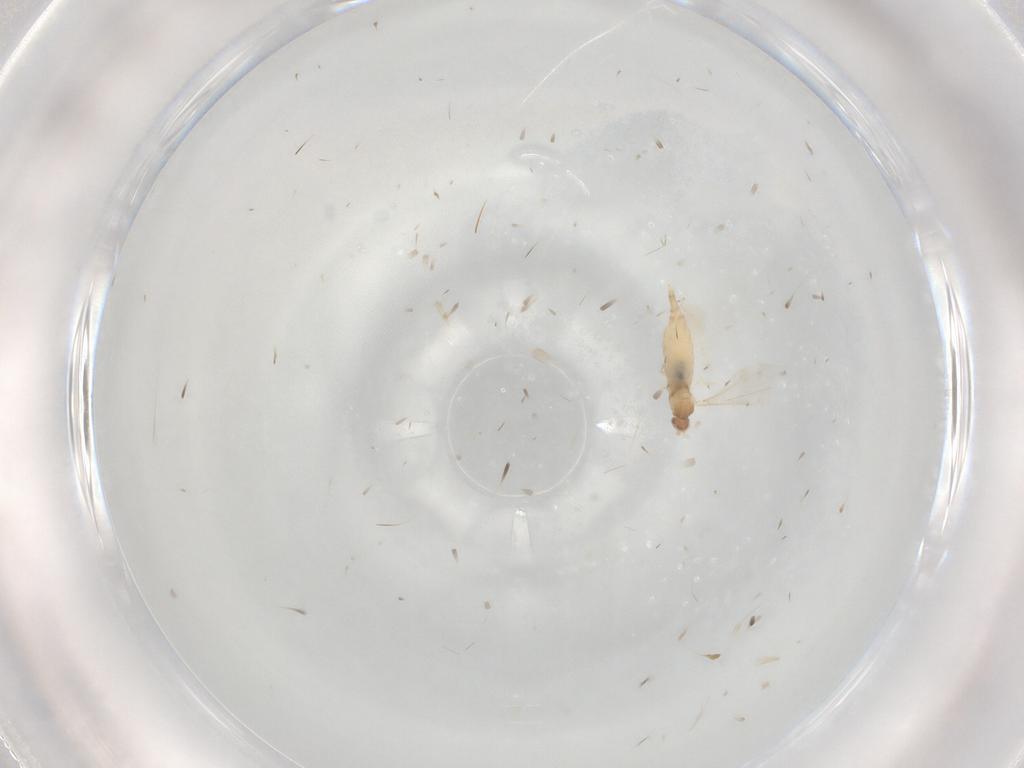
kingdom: Animalia
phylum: Arthropoda
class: Insecta
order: Diptera
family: Cecidomyiidae
